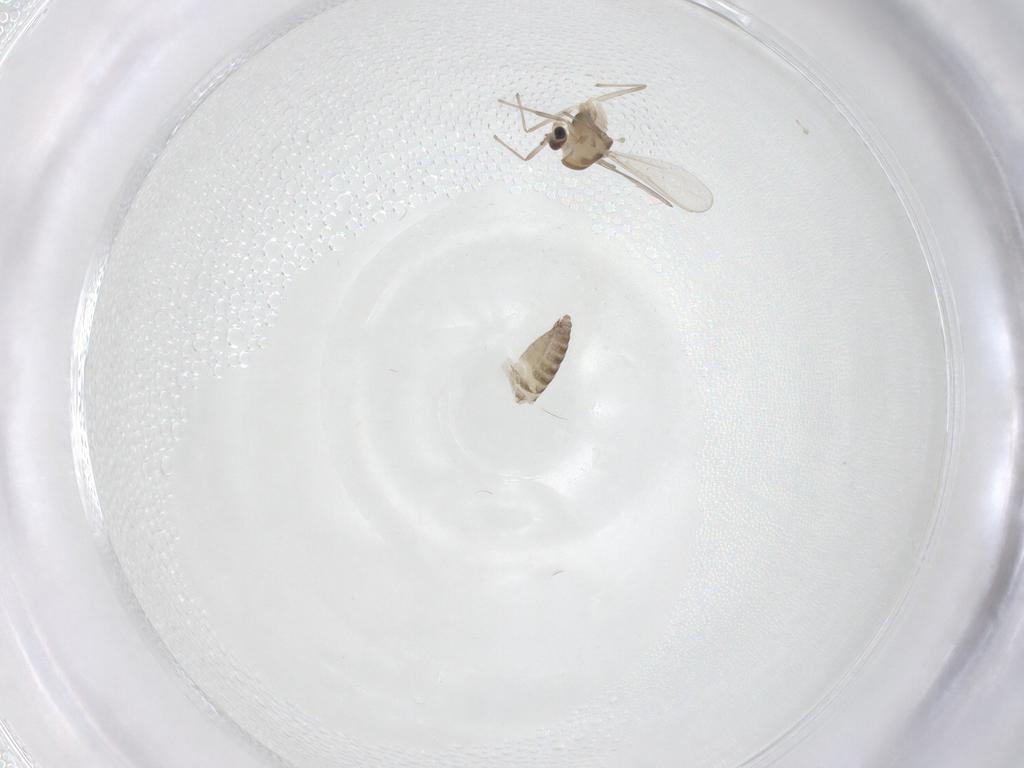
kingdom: Animalia
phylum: Arthropoda
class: Insecta
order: Diptera
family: Chironomidae
